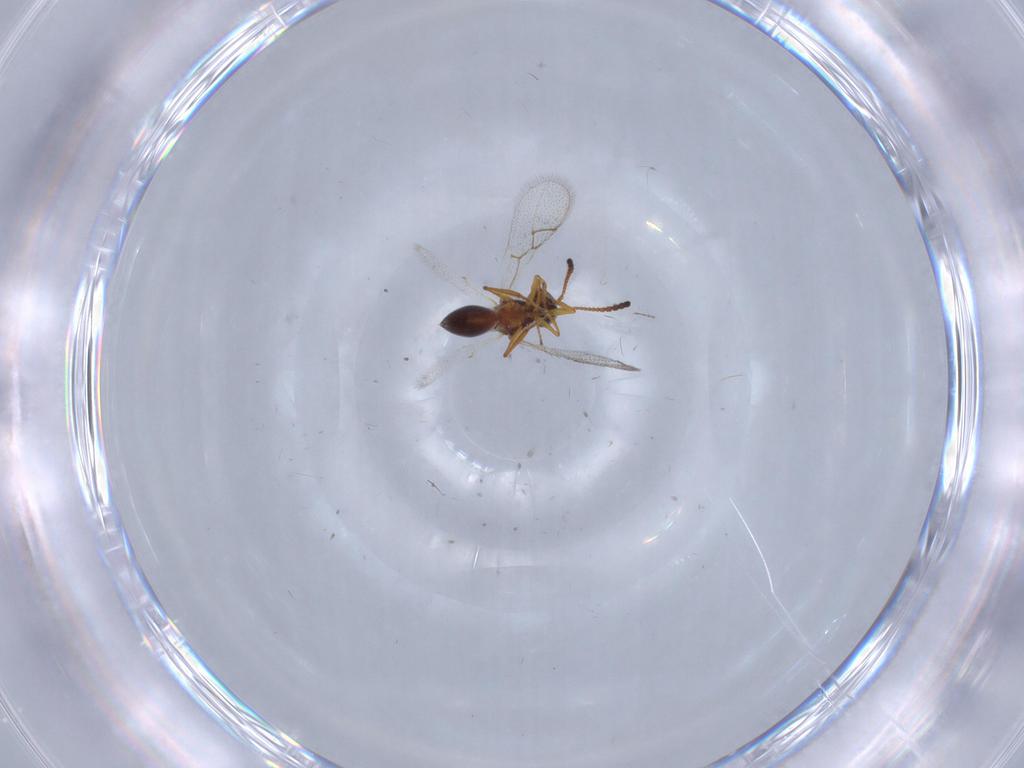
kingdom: Animalia
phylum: Arthropoda
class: Insecta
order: Hymenoptera
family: Figitidae
